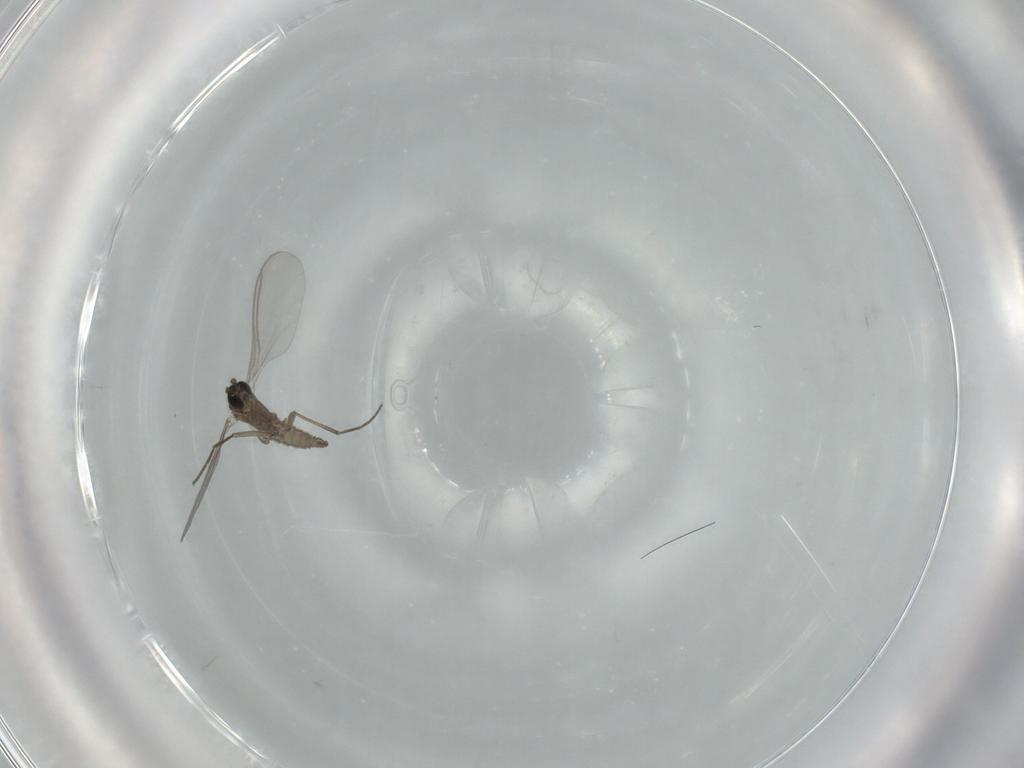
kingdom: Animalia
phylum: Arthropoda
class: Insecta
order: Diptera
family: Sciaridae
